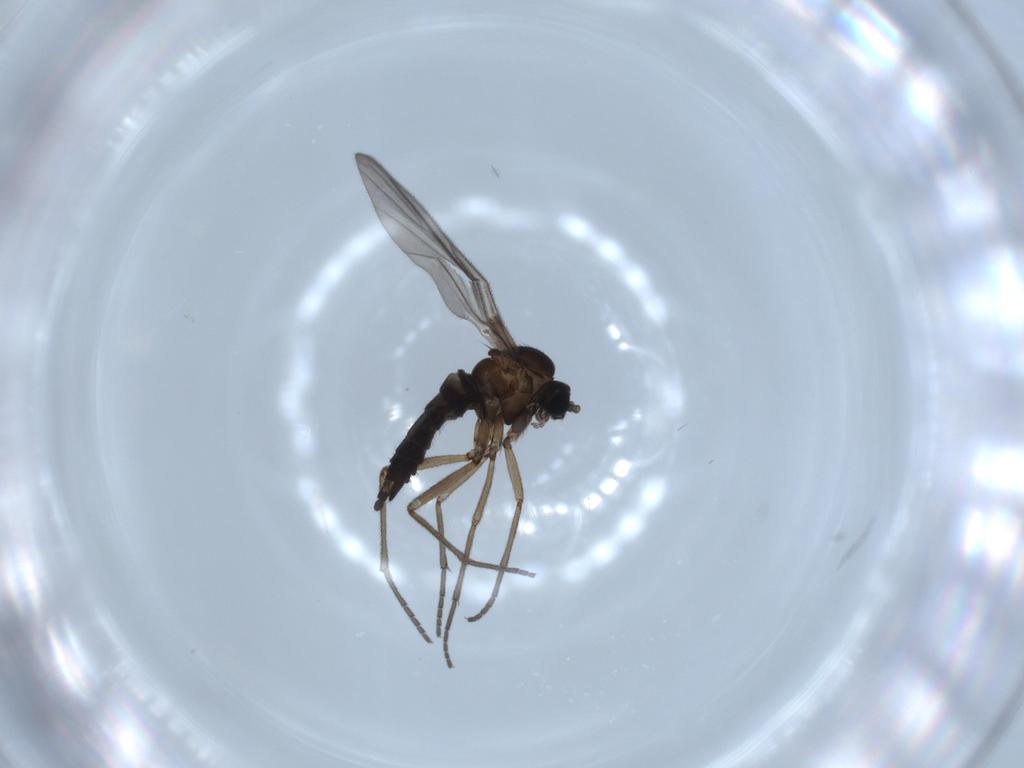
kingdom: Animalia
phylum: Arthropoda
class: Insecta
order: Diptera
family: Sciaridae
